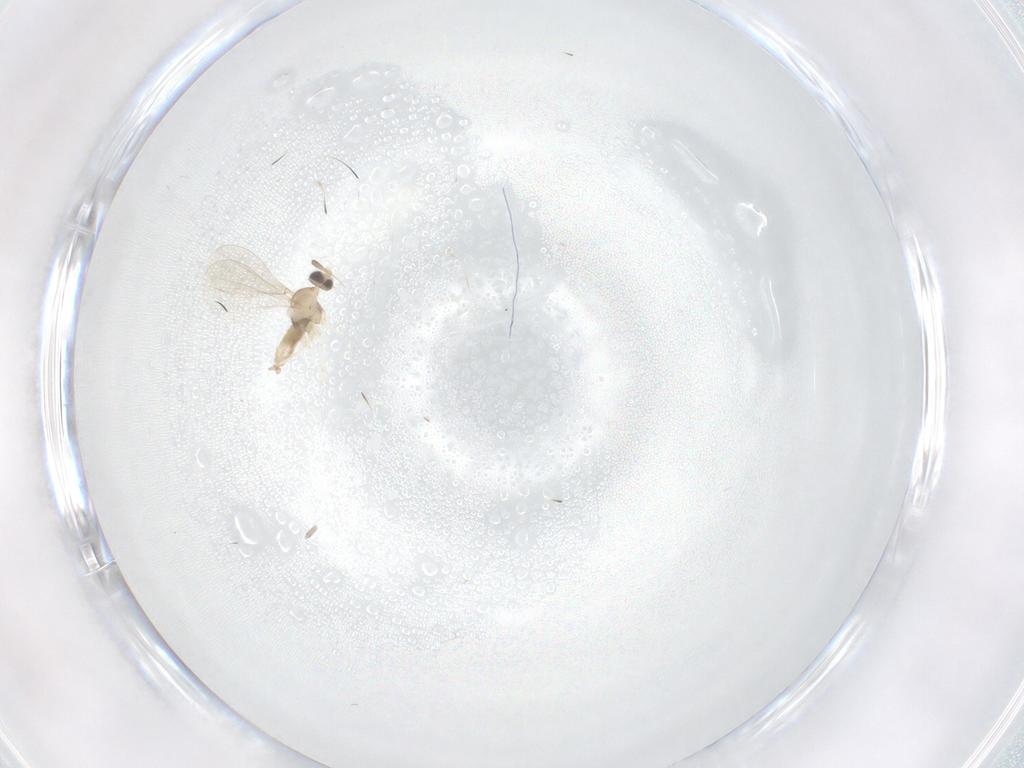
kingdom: Animalia
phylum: Arthropoda
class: Insecta
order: Diptera
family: Cecidomyiidae
